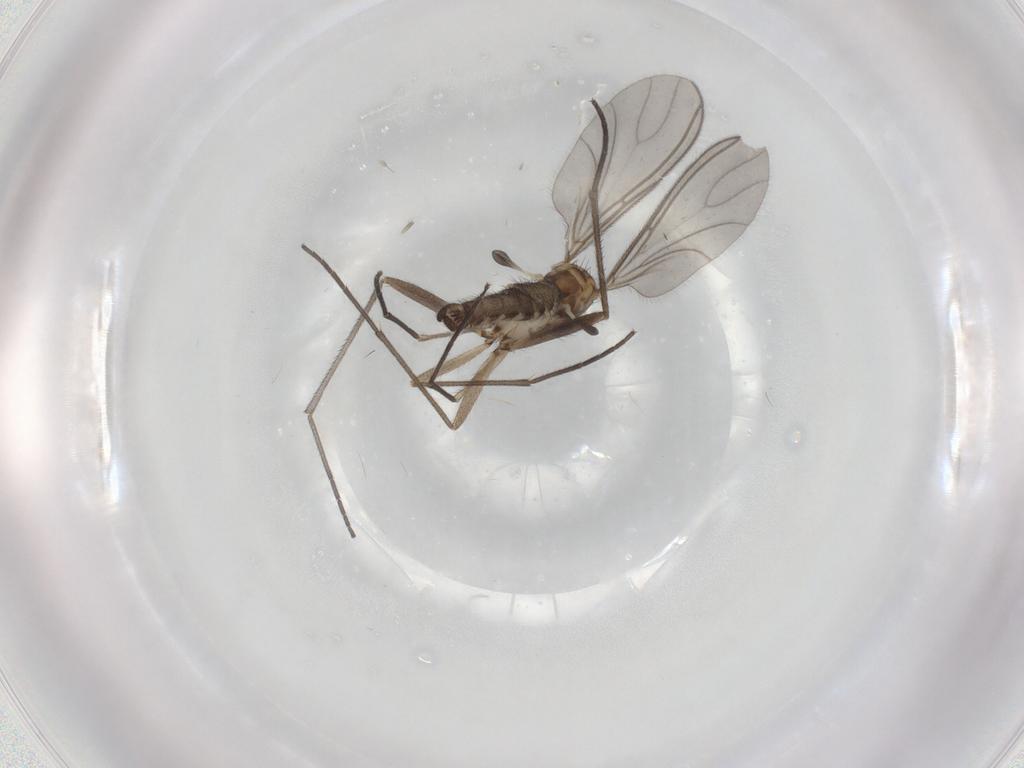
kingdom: Animalia
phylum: Arthropoda
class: Insecta
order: Diptera
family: Sciaridae
